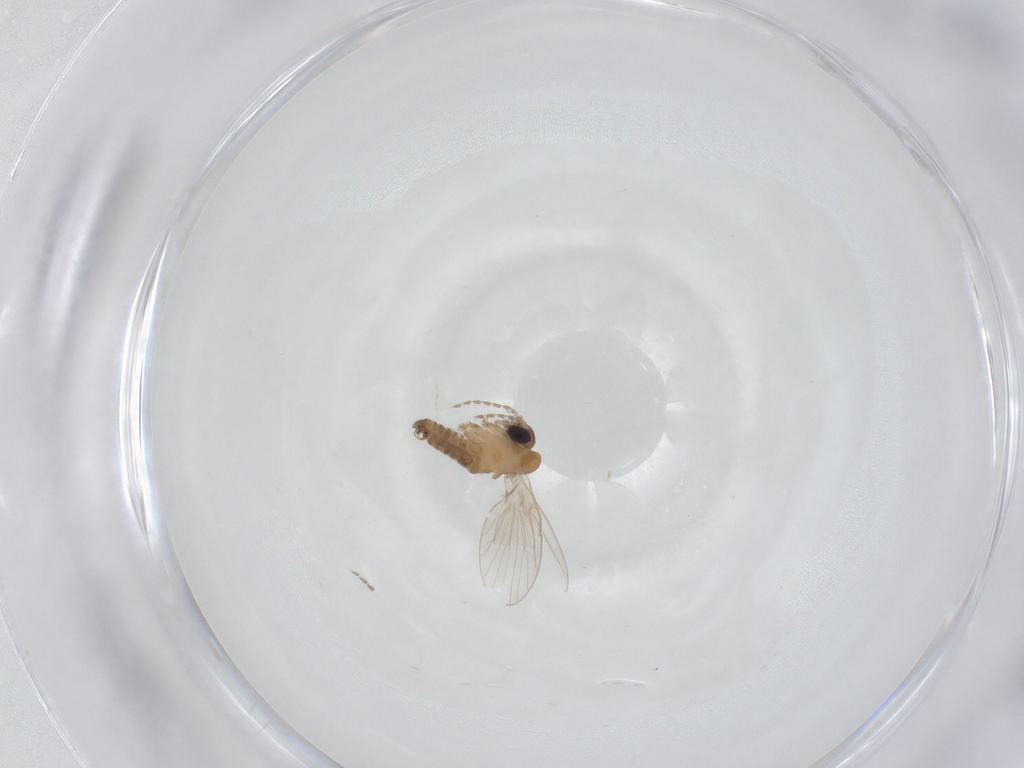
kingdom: Animalia
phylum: Arthropoda
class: Insecta
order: Diptera
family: Psychodidae
